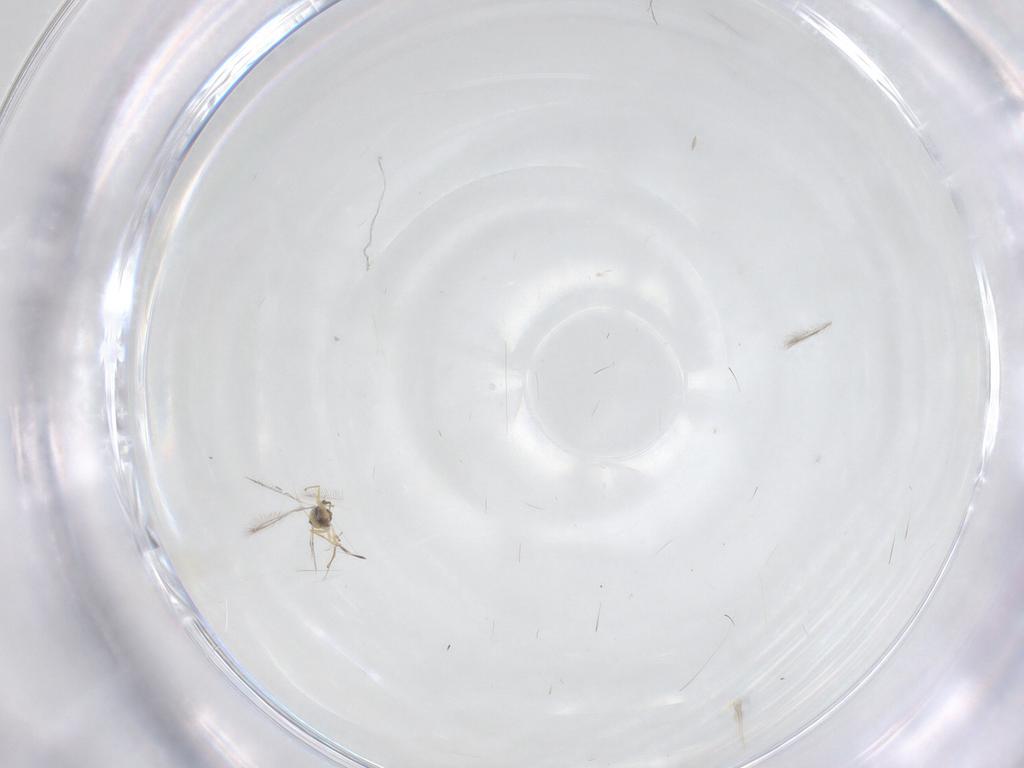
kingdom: Animalia
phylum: Arthropoda
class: Insecta
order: Hymenoptera
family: Mymaridae
